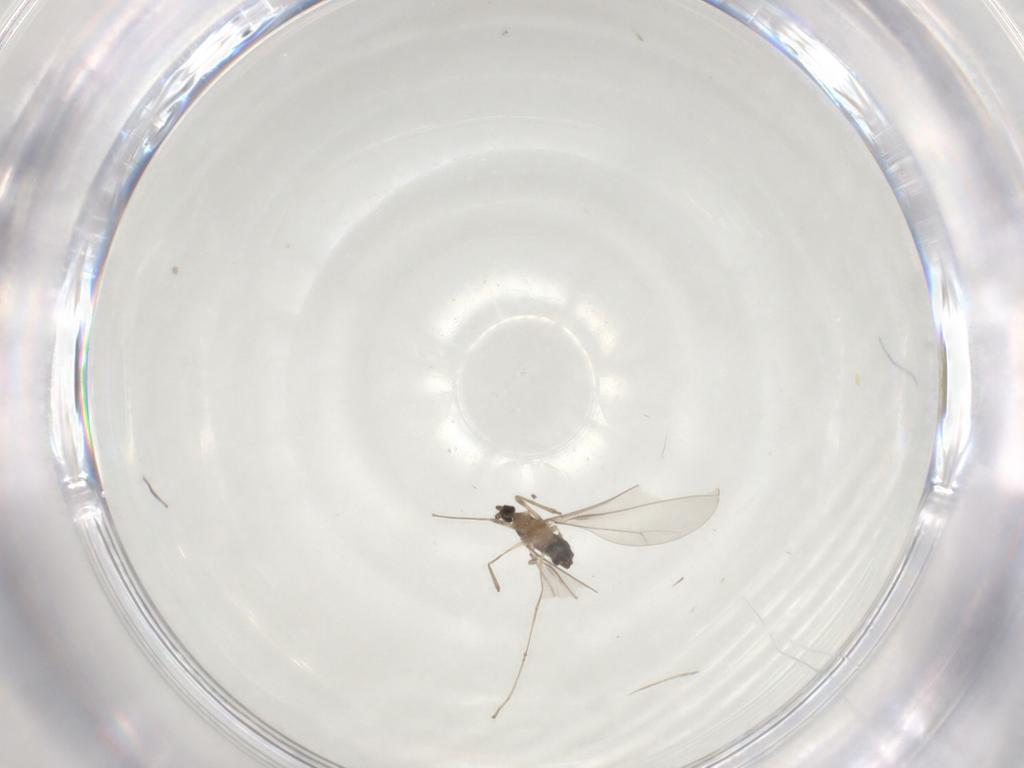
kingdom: Animalia
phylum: Arthropoda
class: Insecta
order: Diptera
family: Cecidomyiidae
